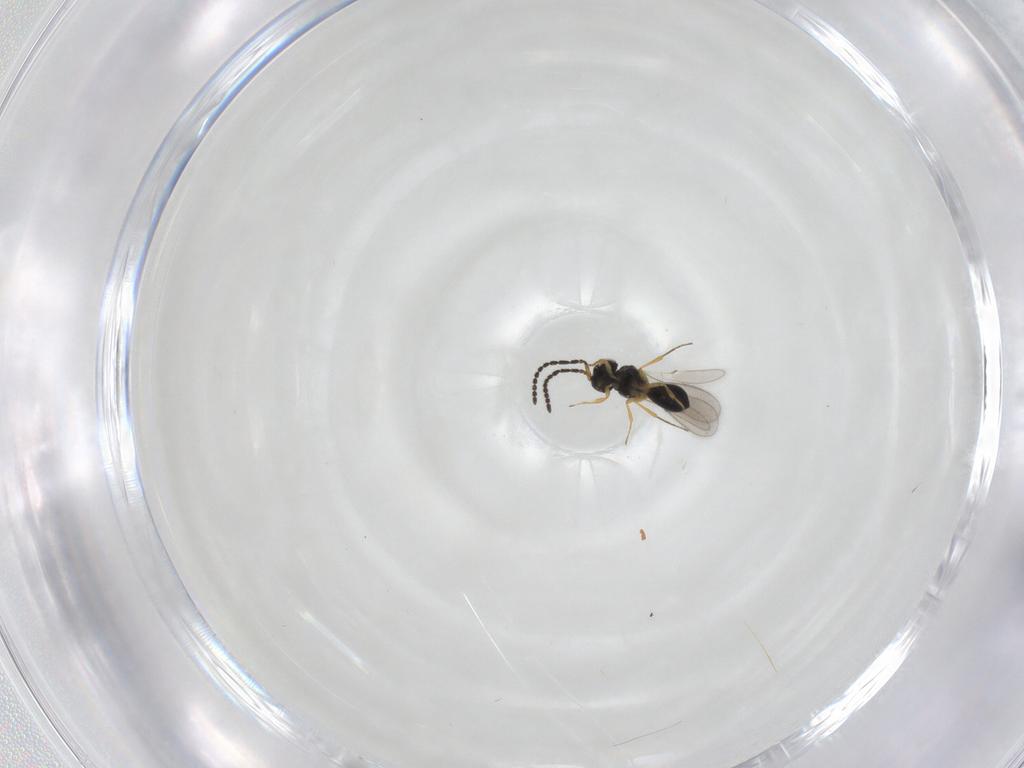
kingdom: Animalia
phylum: Arthropoda
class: Insecta
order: Hymenoptera
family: Scelionidae
